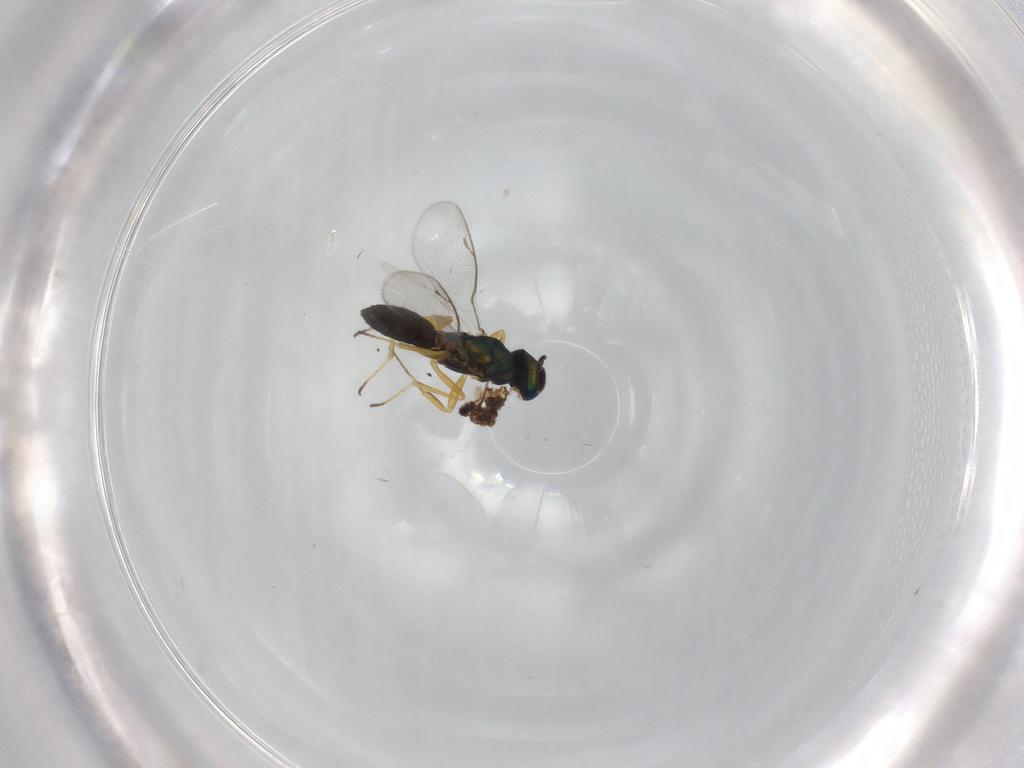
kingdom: Animalia
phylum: Arthropoda
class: Insecta
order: Hymenoptera
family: Eupelmidae
